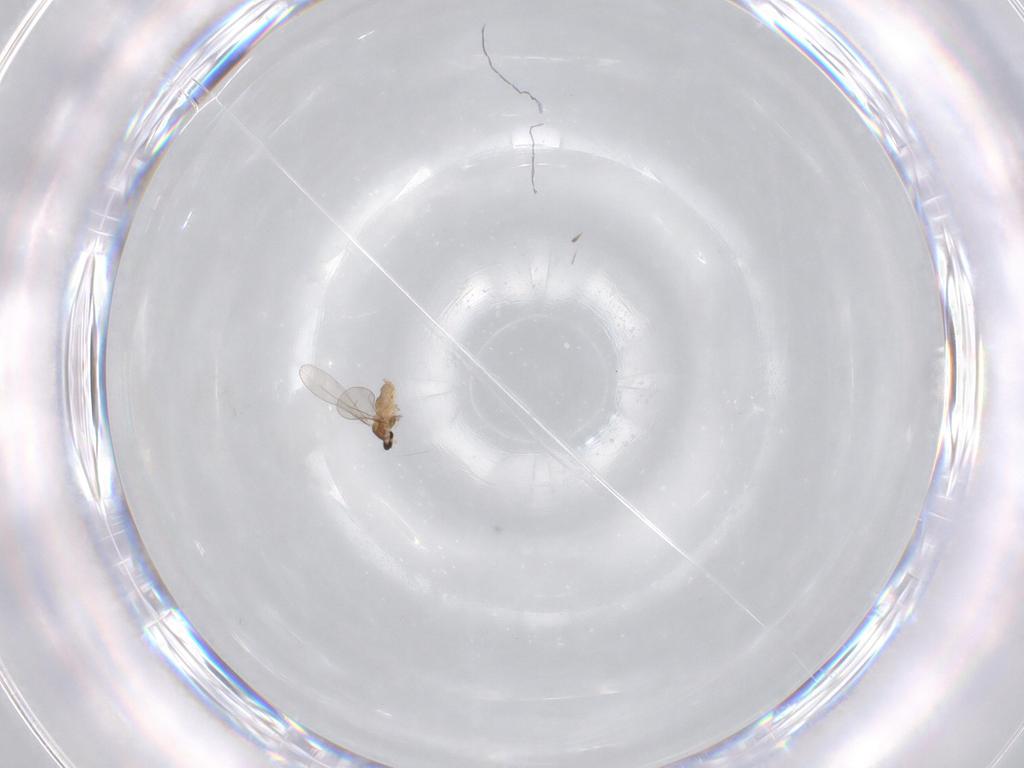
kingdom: Animalia
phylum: Arthropoda
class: Insecta
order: Diptera
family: Cecidomyiidae
